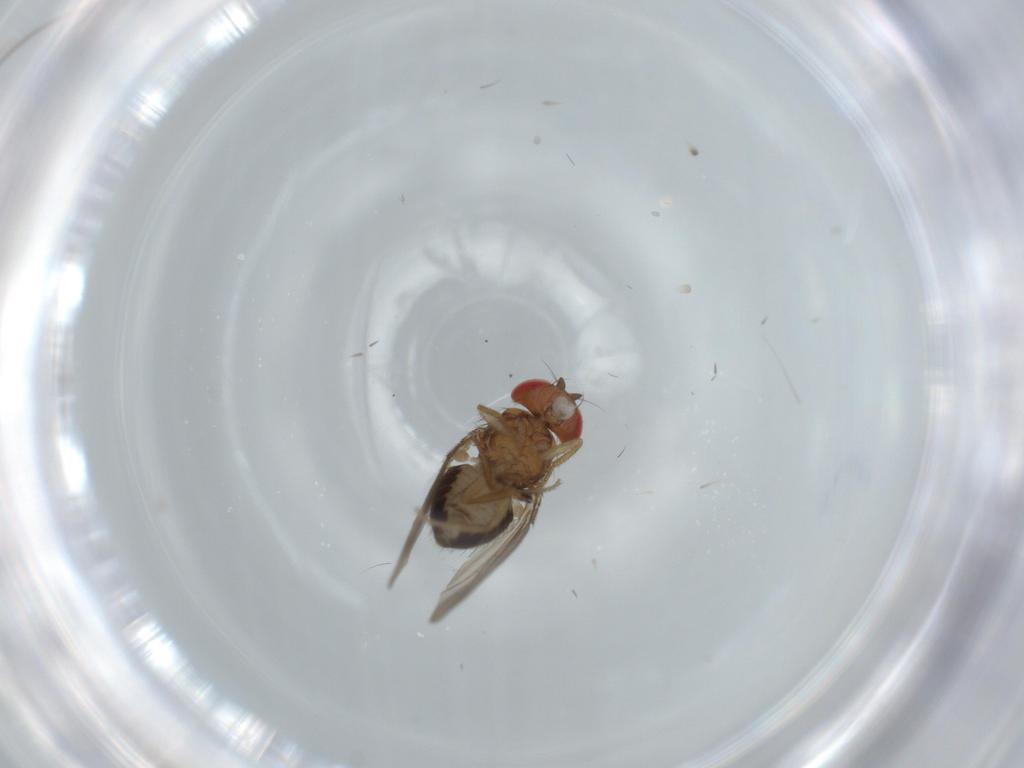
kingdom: Animalia
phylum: Arthropoda
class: Insecta
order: Diptera
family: Drosophilidae
